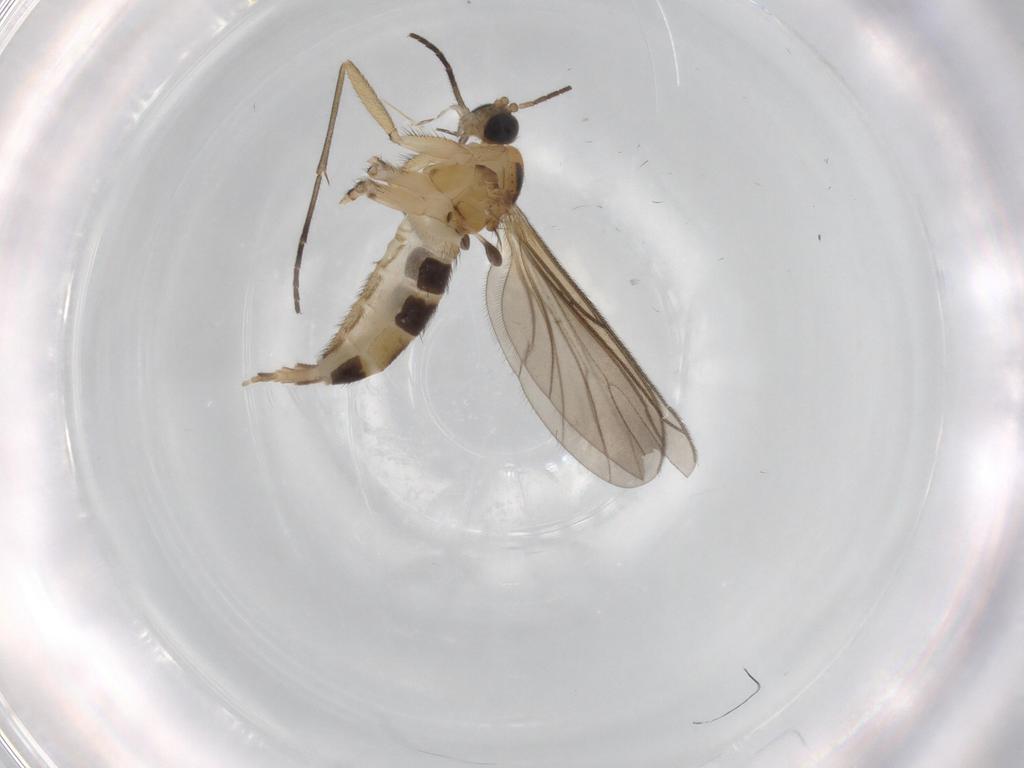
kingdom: Animalia
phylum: Arthropoda
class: Insecta
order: Diptera
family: Sciaridae
